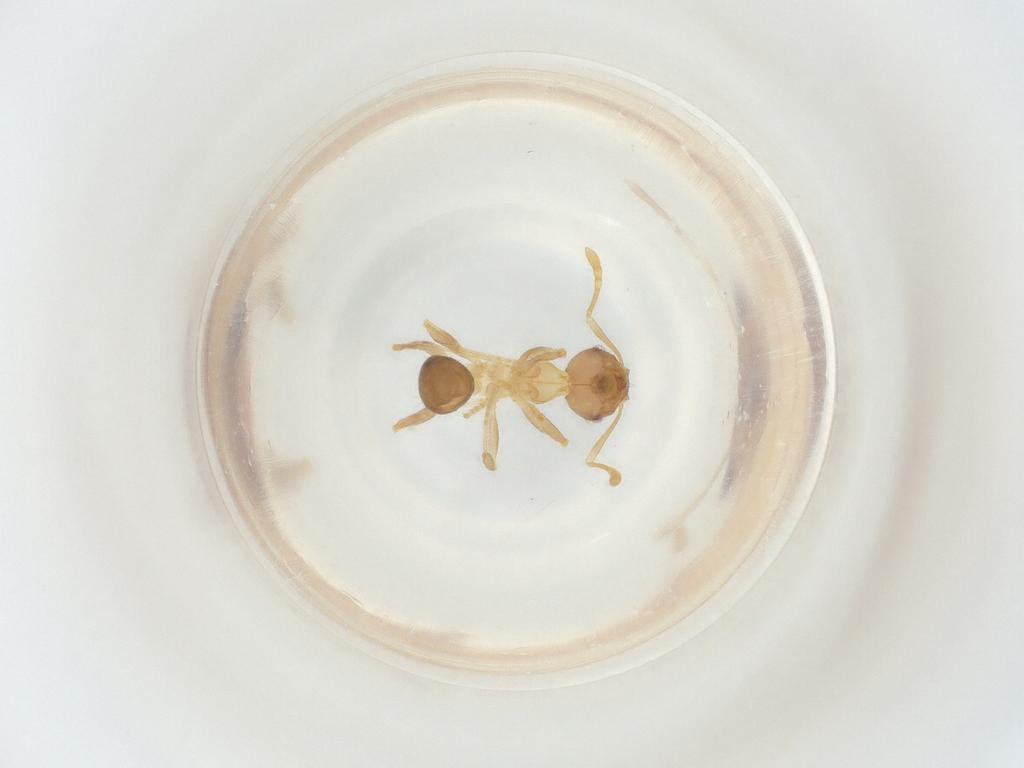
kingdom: Animalia
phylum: Arthropoda
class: Insecta
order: Hymenoptera
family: Formicidae
